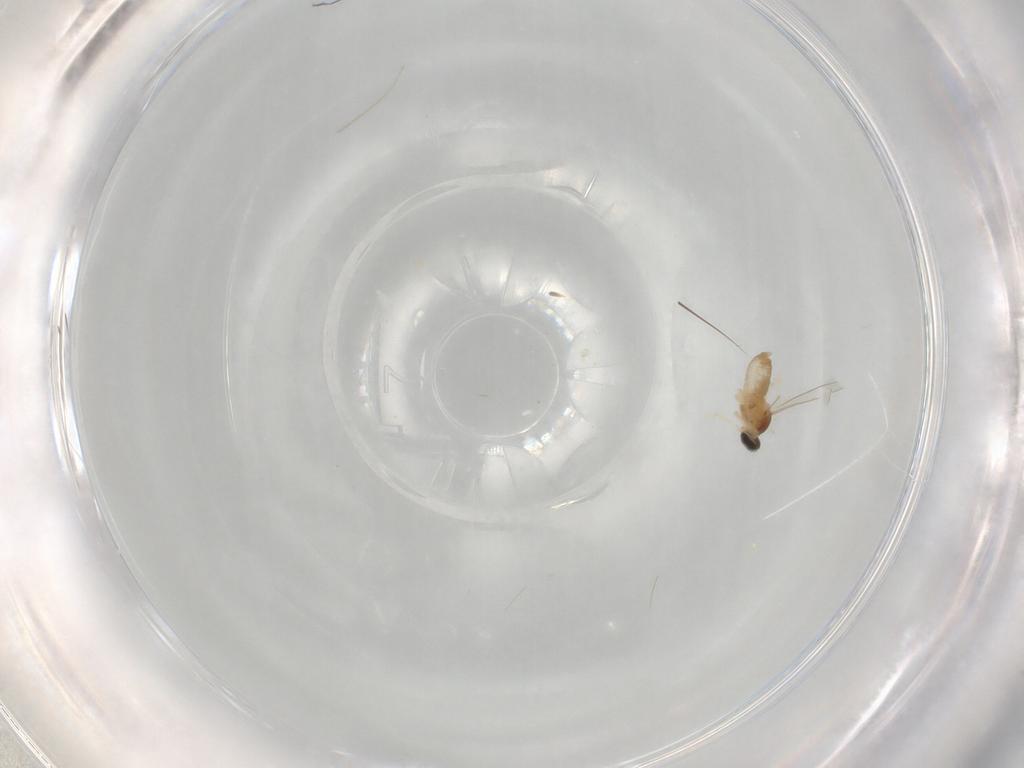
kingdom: Animalia
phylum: Arthropoda
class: Insecta
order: Diptera
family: Cecidomyiidae
